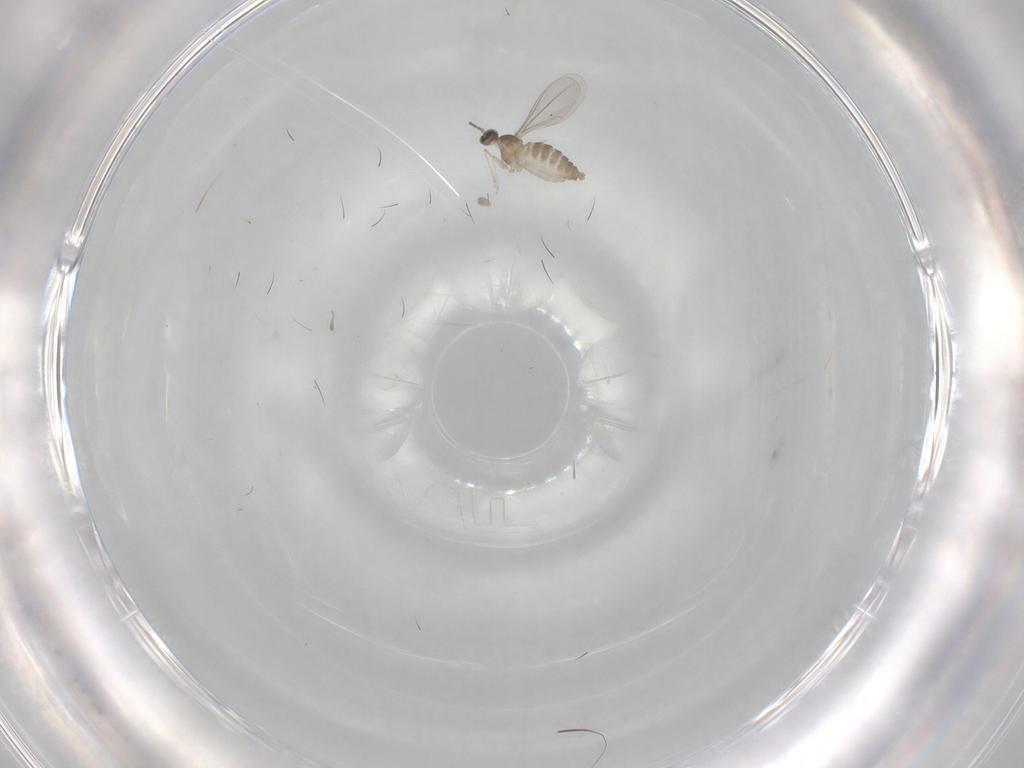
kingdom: Animalia
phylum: Arthropoda
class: Insecta
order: Diptera
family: Cecidomyiidae
